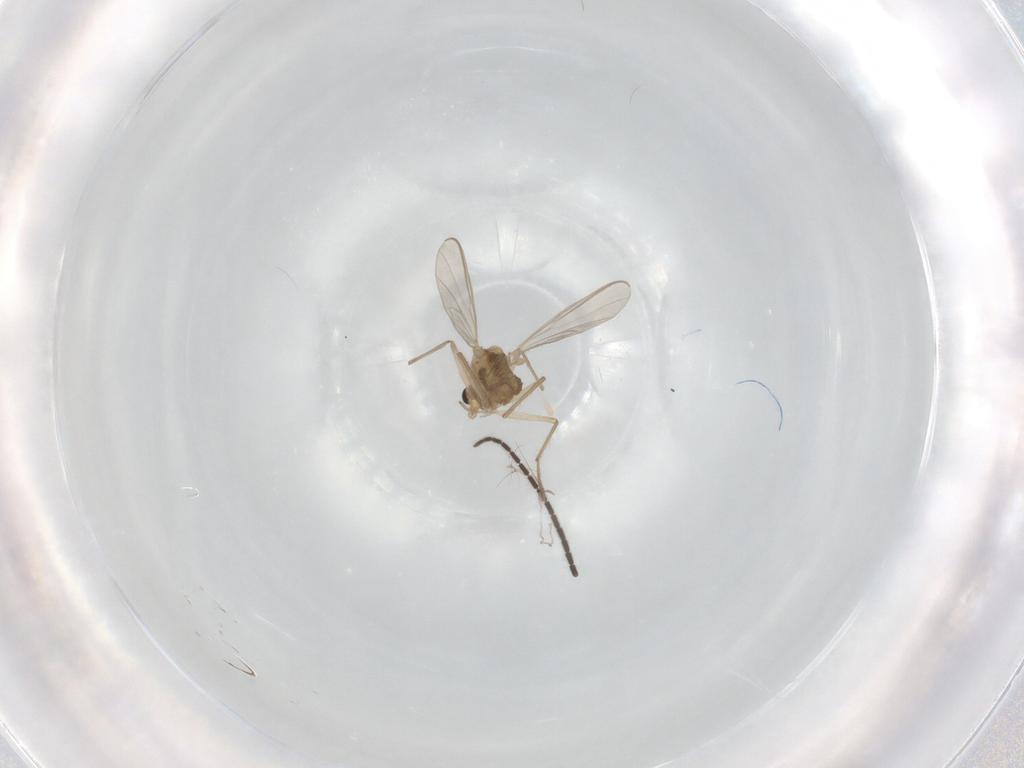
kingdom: Animalia
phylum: Arthropoda
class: Insecta
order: Diptera
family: Chironomidae
